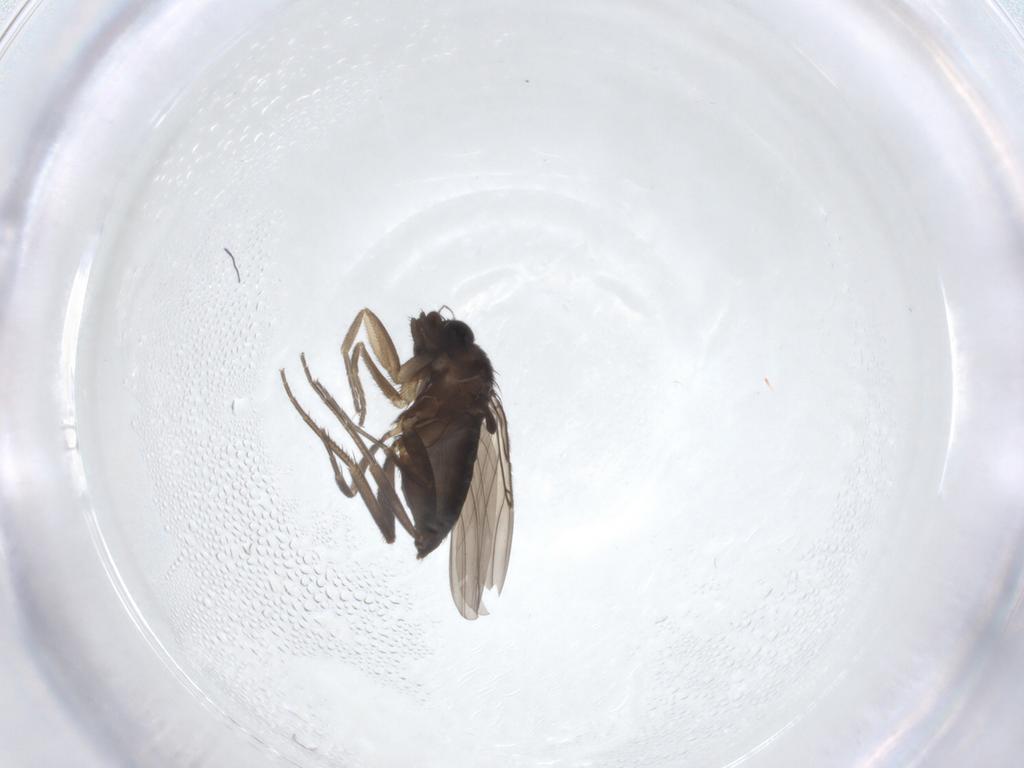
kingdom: Animalia
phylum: Arthropoda
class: Insecta
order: Diptera
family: Phoridae
